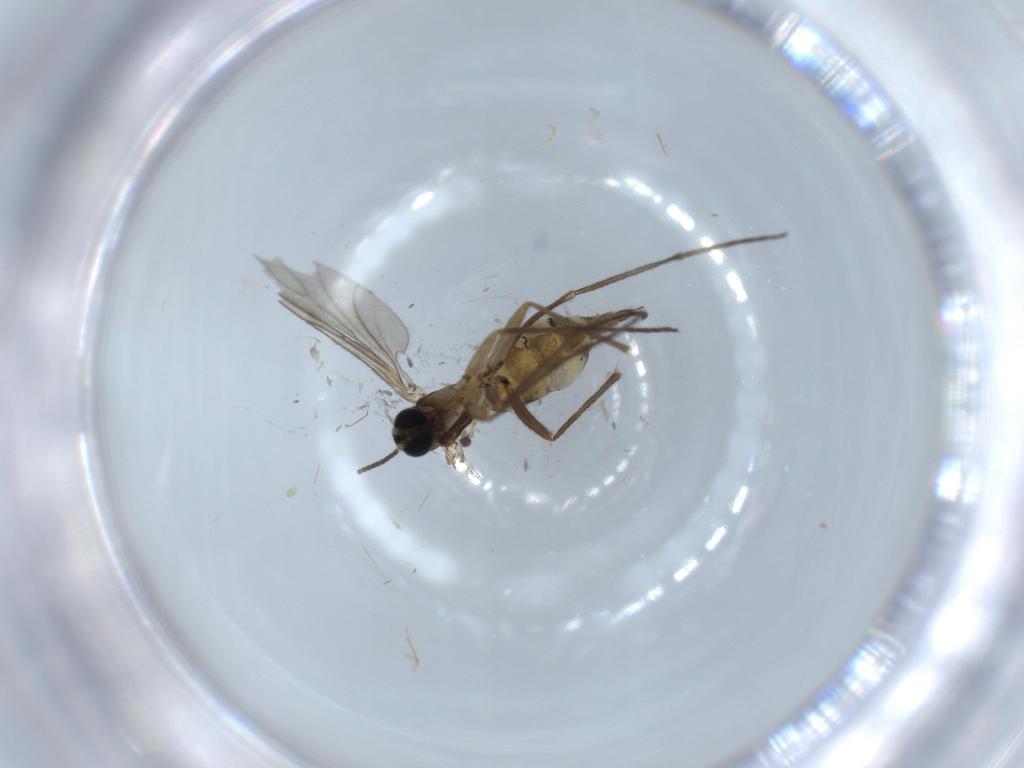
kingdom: Animalia
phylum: Arthropoda
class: Insecta
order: Diptera
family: Sciaridae
